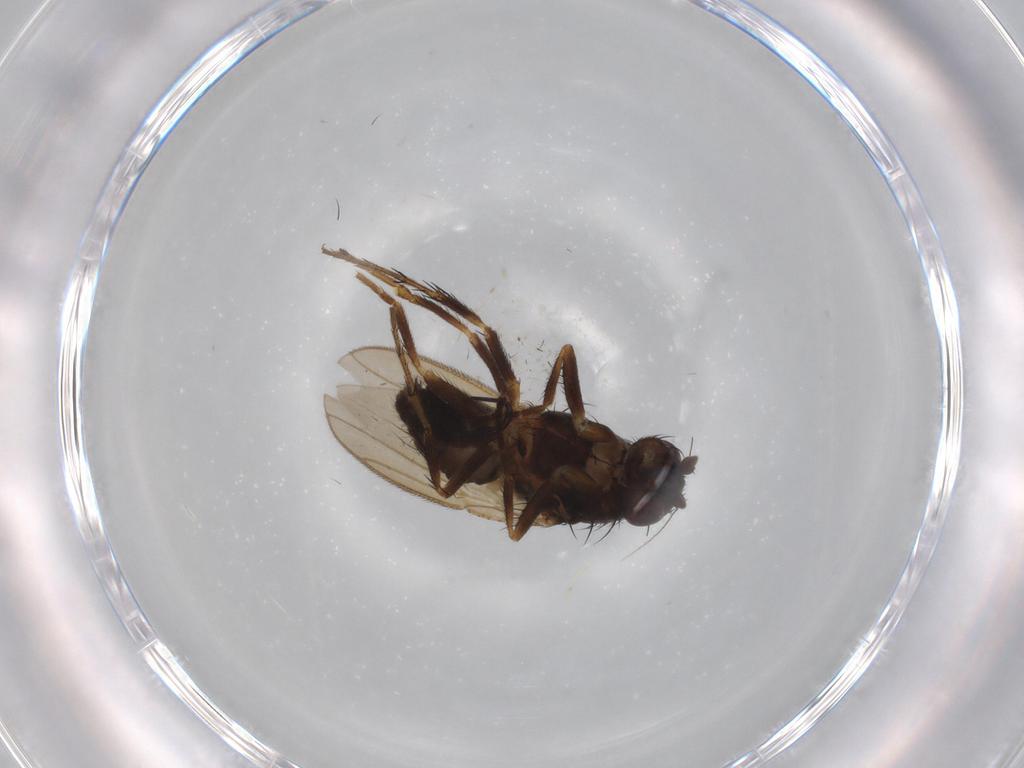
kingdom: Animalia
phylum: Arthropoda
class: Insecta
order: Diptera
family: Sphaeroceridae
